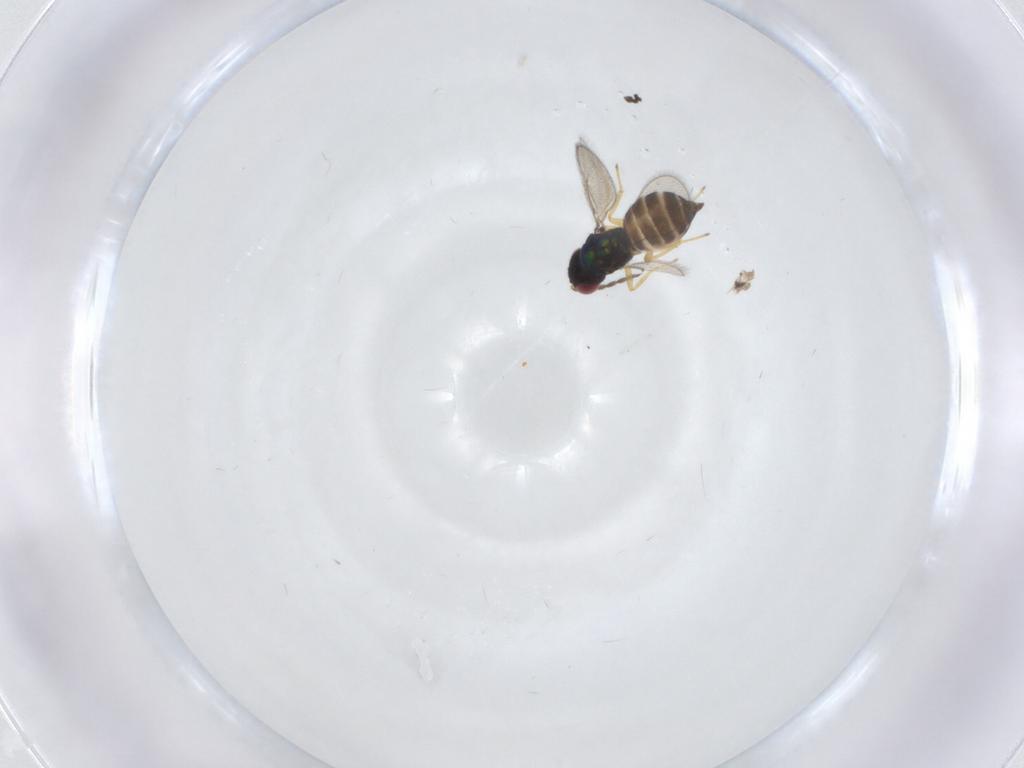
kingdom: Animalia
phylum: Arthropoda
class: Insecta
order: Hymenoptera
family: Eulophidae
